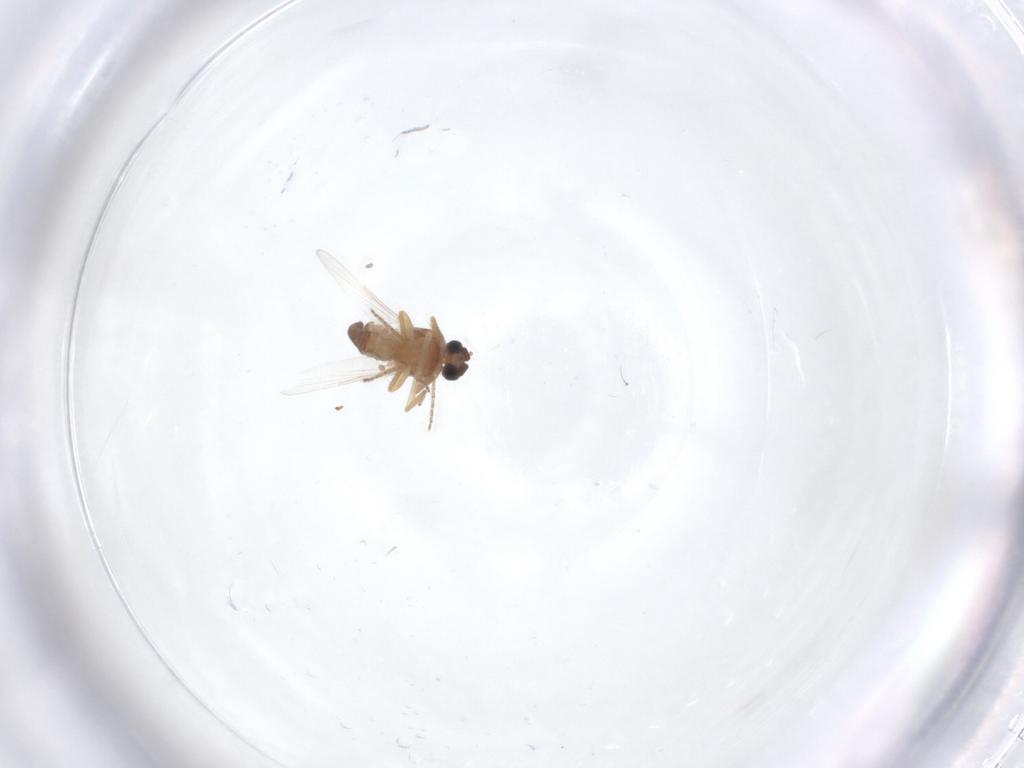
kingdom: Animalia
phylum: Arthropoda
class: Insecta
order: Diptera
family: Ceratopogonidae
